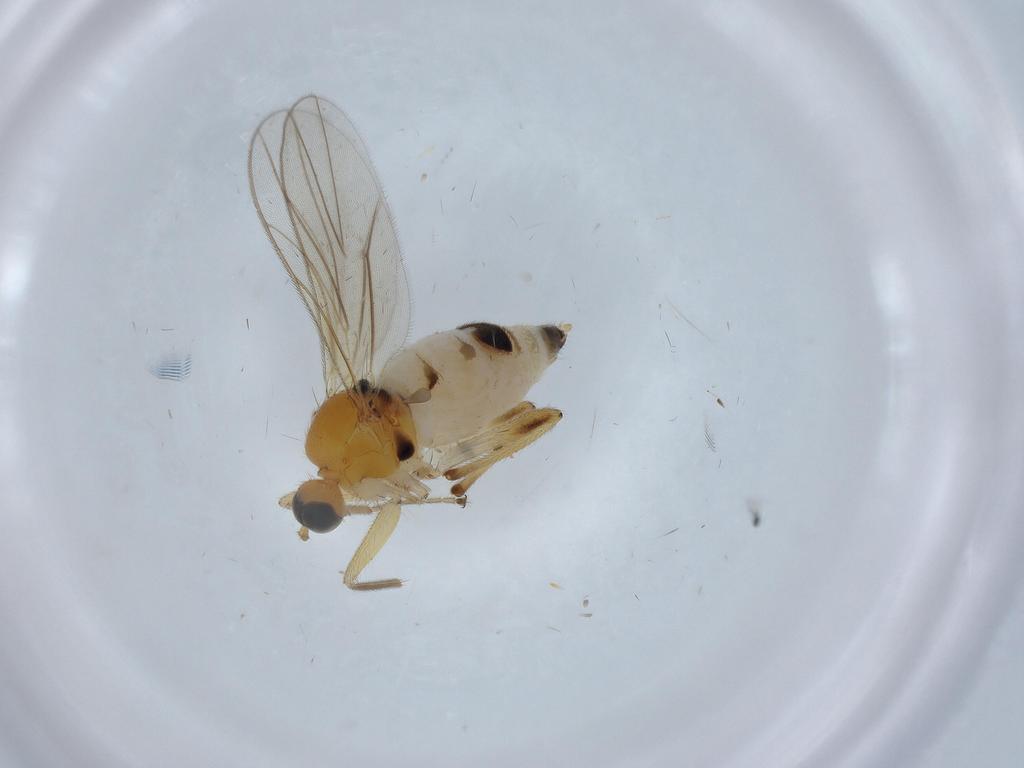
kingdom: Animalia
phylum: Arthropoda
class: Insecta
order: Diptera
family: Hybotidae
